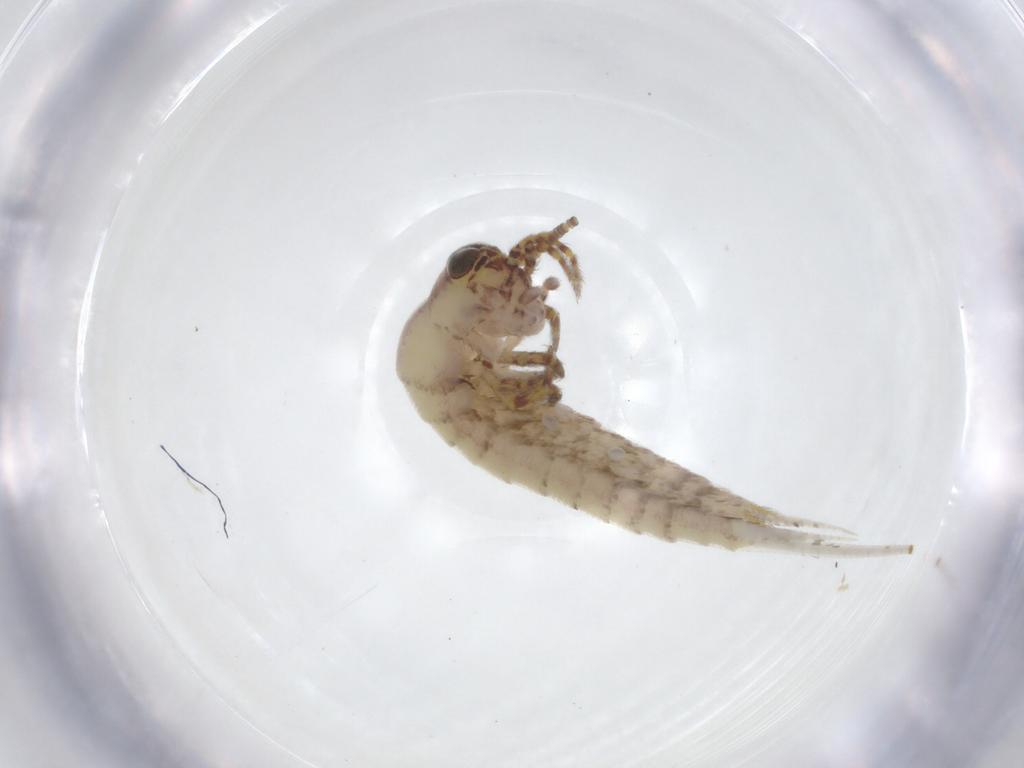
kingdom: Animalia
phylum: Arthropoda
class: Insecta
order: Archaeognatha
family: Meinertellidae
